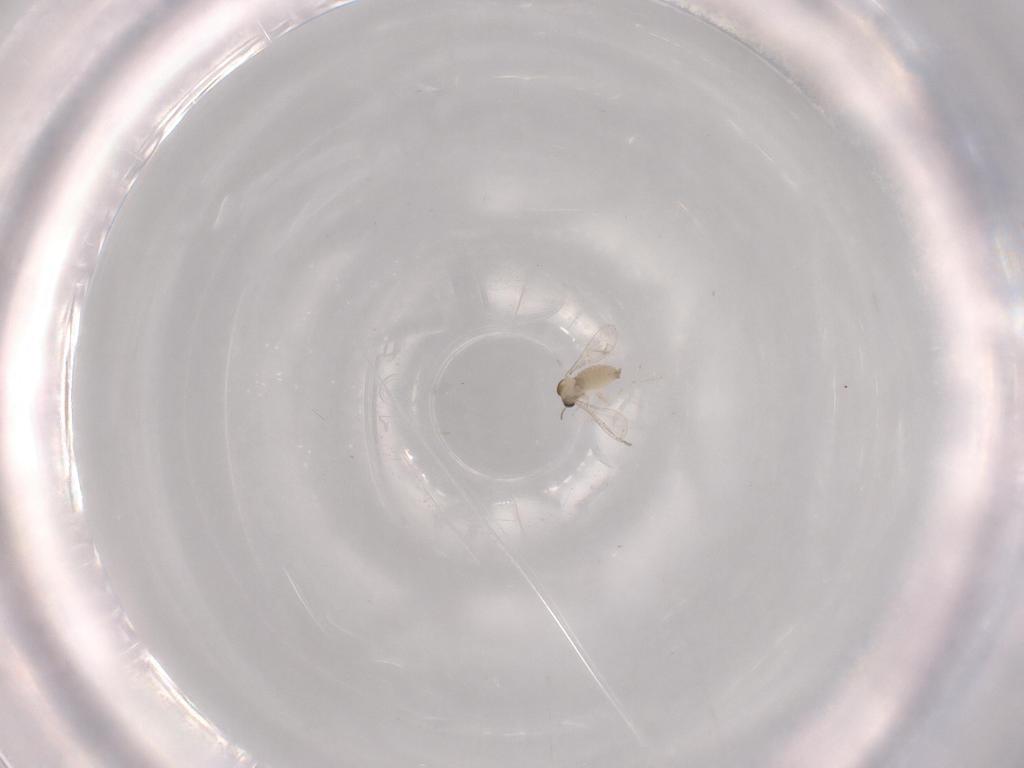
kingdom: Animalia
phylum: Arthropoda
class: Insecta
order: Diptera
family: Chironomidae
